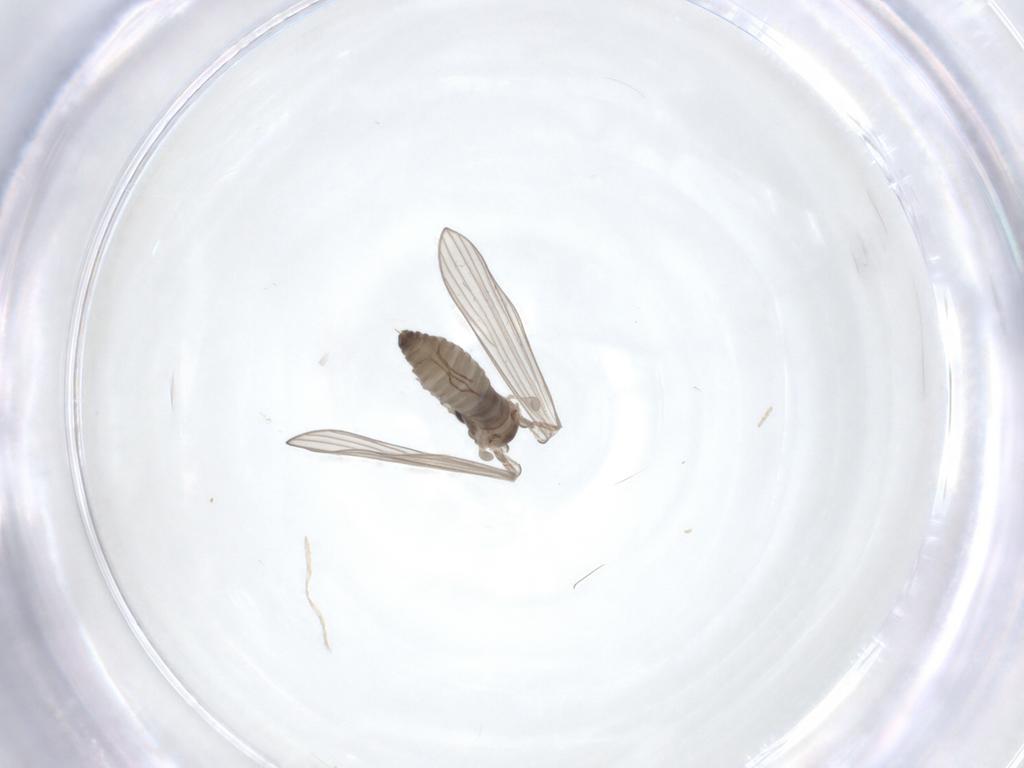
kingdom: Animalia
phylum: Arthropoda
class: Insecta
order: Diptera
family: Psychodidae
